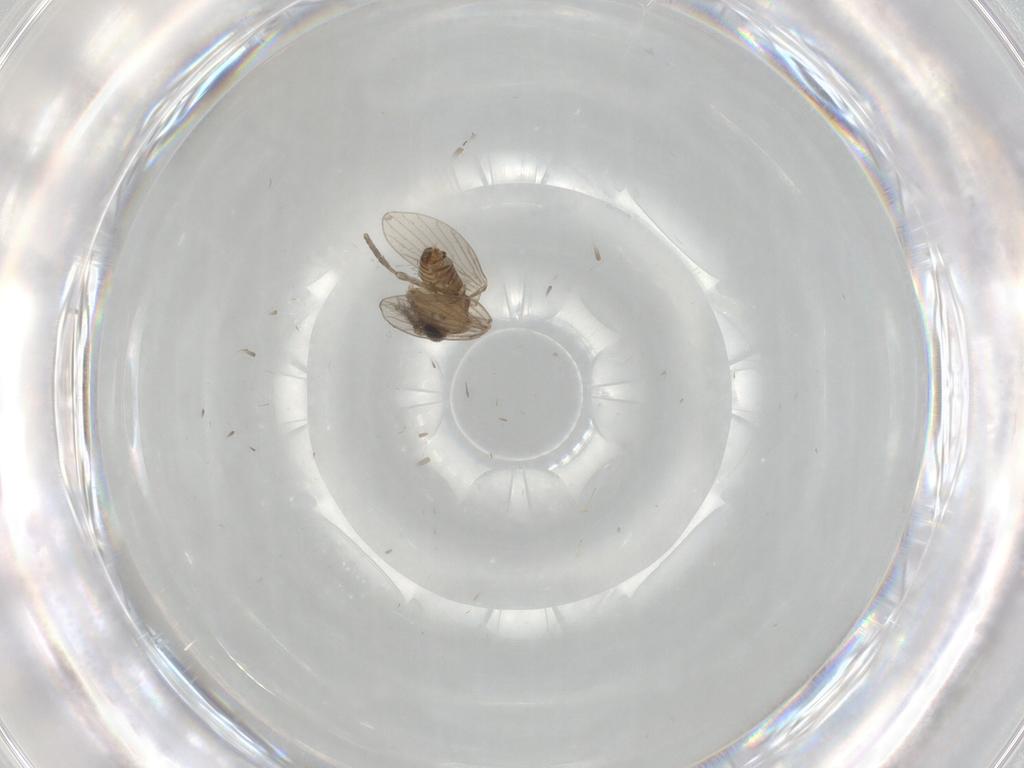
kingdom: Animalia
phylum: Arthropoda
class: Insecta
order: Diptera
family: Psychodidae
